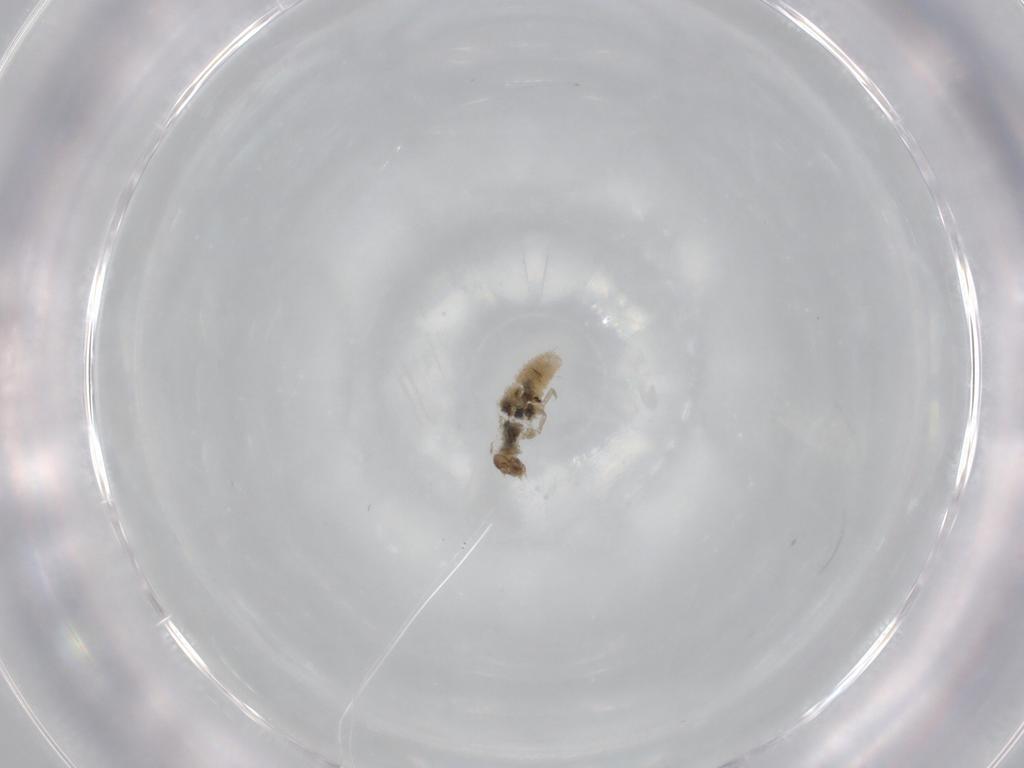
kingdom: Animalia
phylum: Arthropoda
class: Insecta
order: Coleoptera
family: Latridiidae
